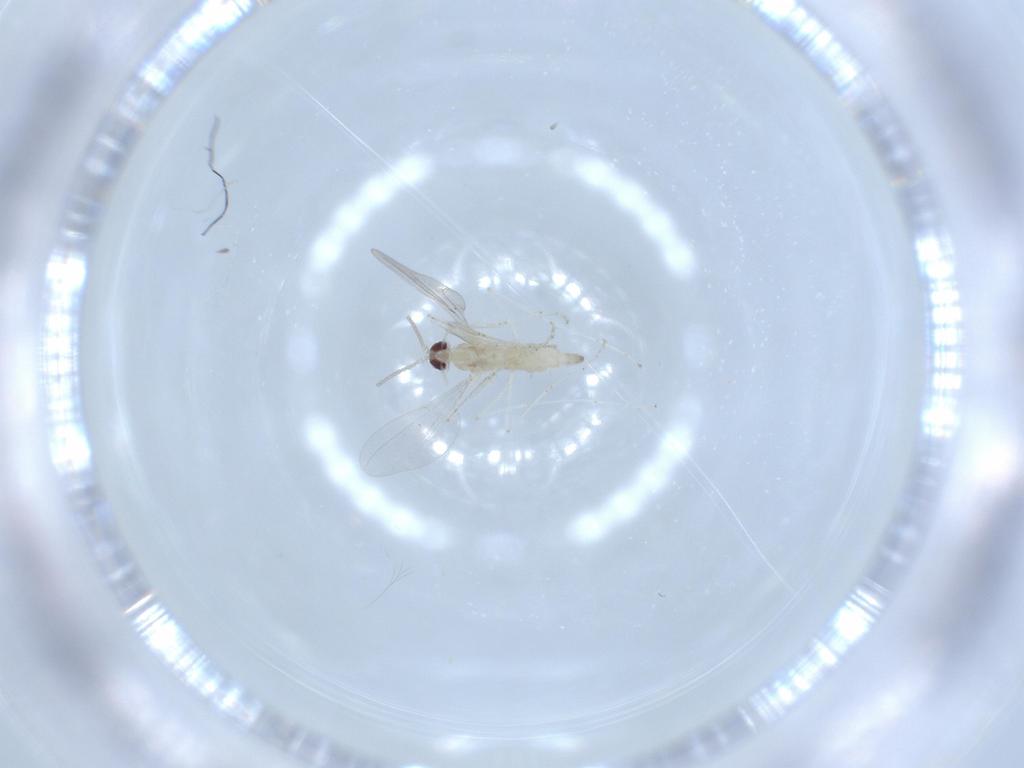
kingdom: Animalia
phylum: Arthropoda
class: Insecta
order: Diptera
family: Cecidomyiidae
